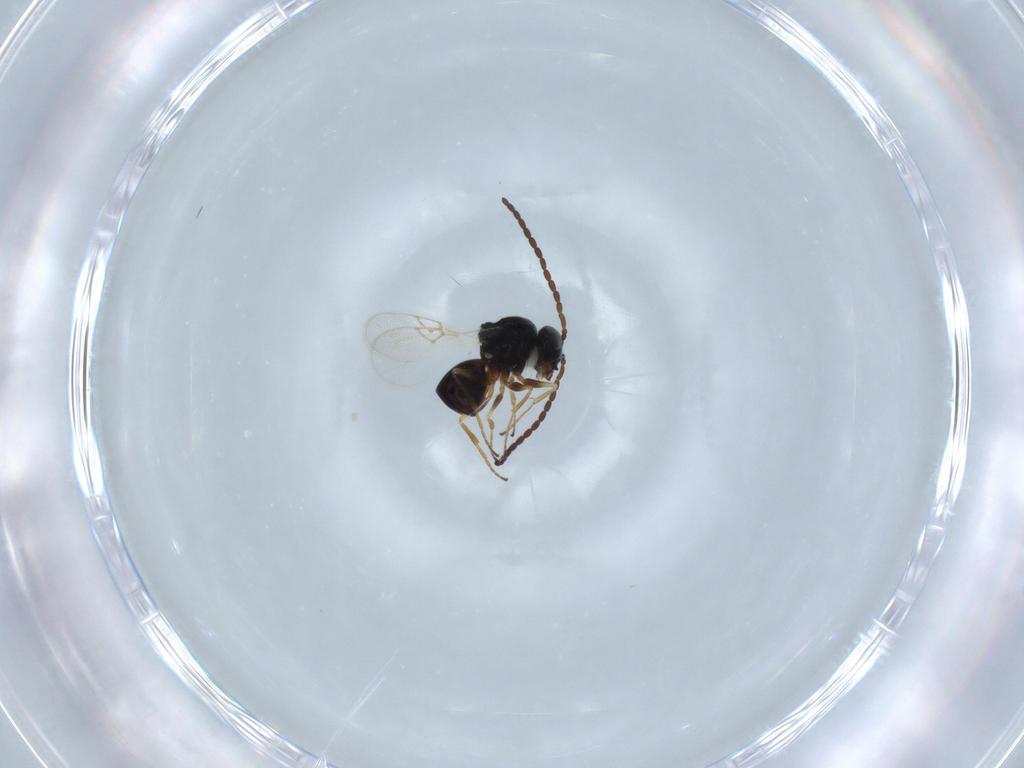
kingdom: Animalia
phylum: Arthropoda
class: Insecta
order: Hymenoptera
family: Figitidae
